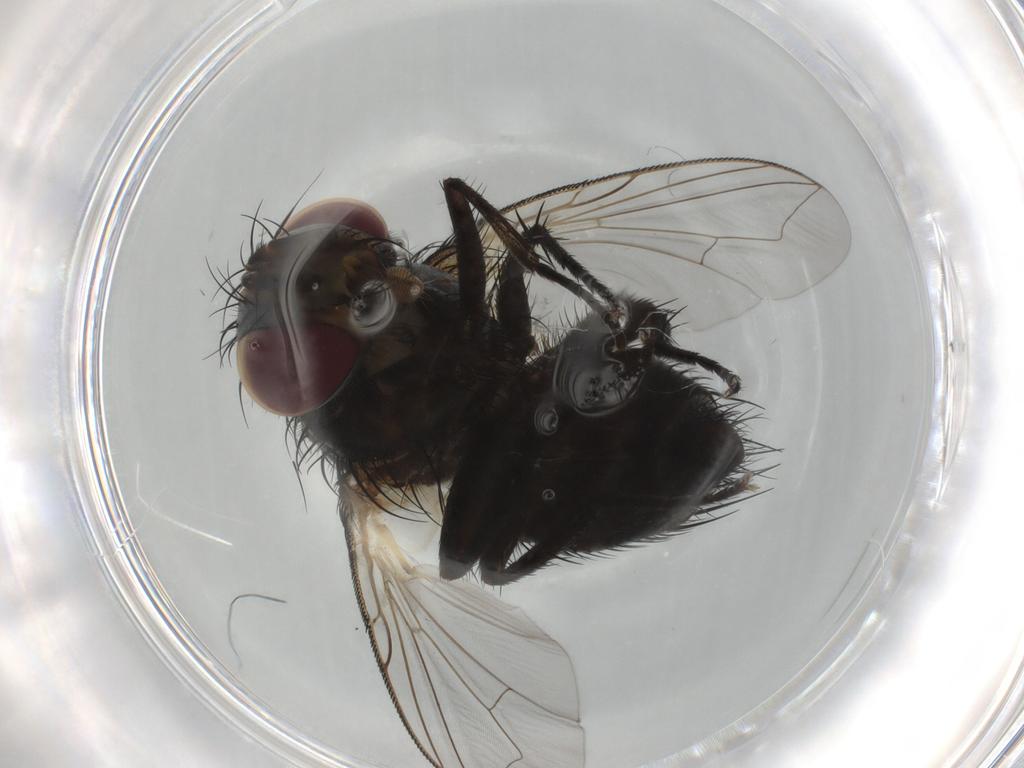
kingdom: Animalia
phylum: Arthropoda
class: Insecta
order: Diptera
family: Tachinidae
